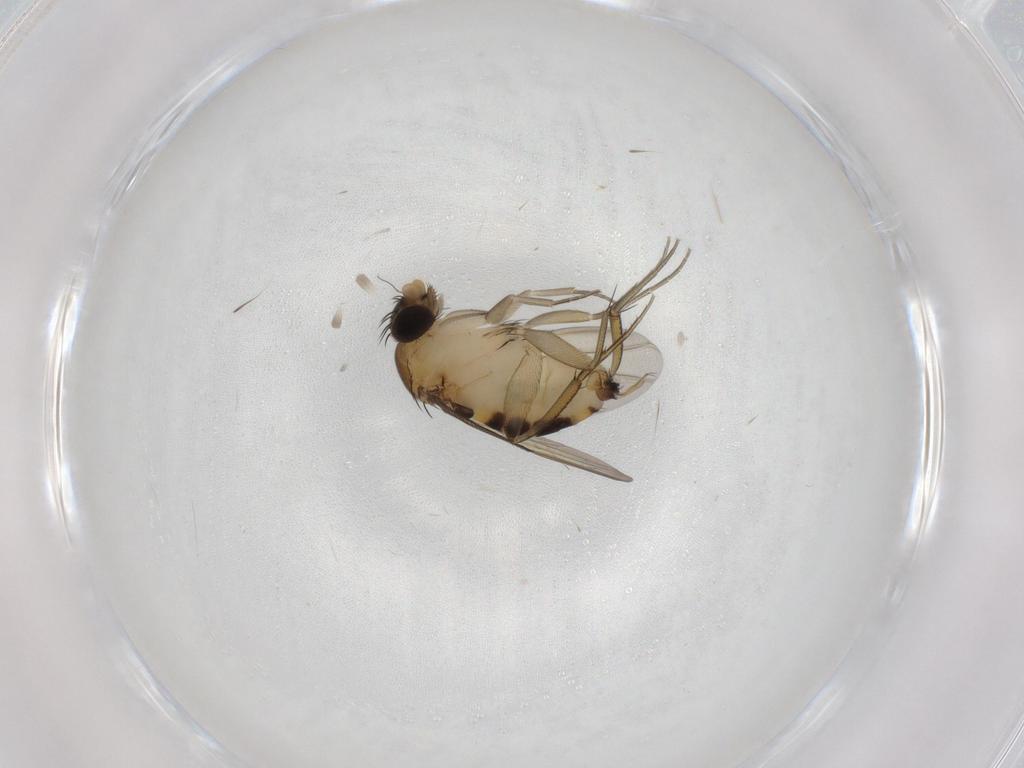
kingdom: Animalia
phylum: Arthropoda
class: Insecta
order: Diptera
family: Phoridae
